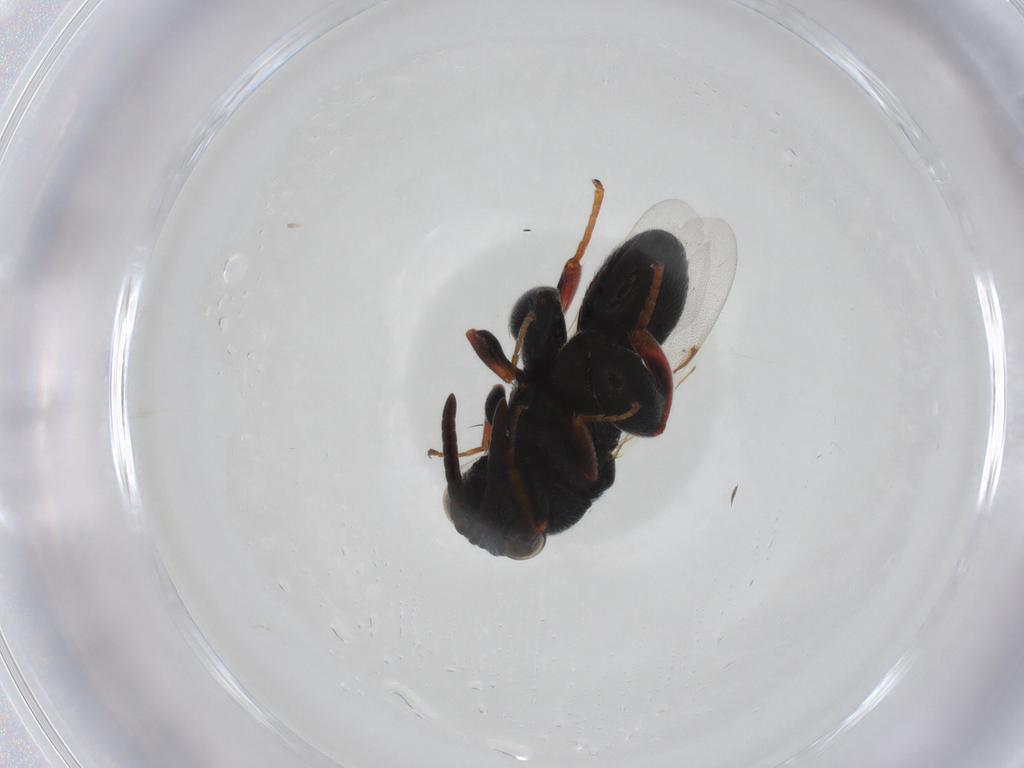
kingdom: Animalia
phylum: Arthropoda
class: Insecta
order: Hymenoptera
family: Chalcididae
